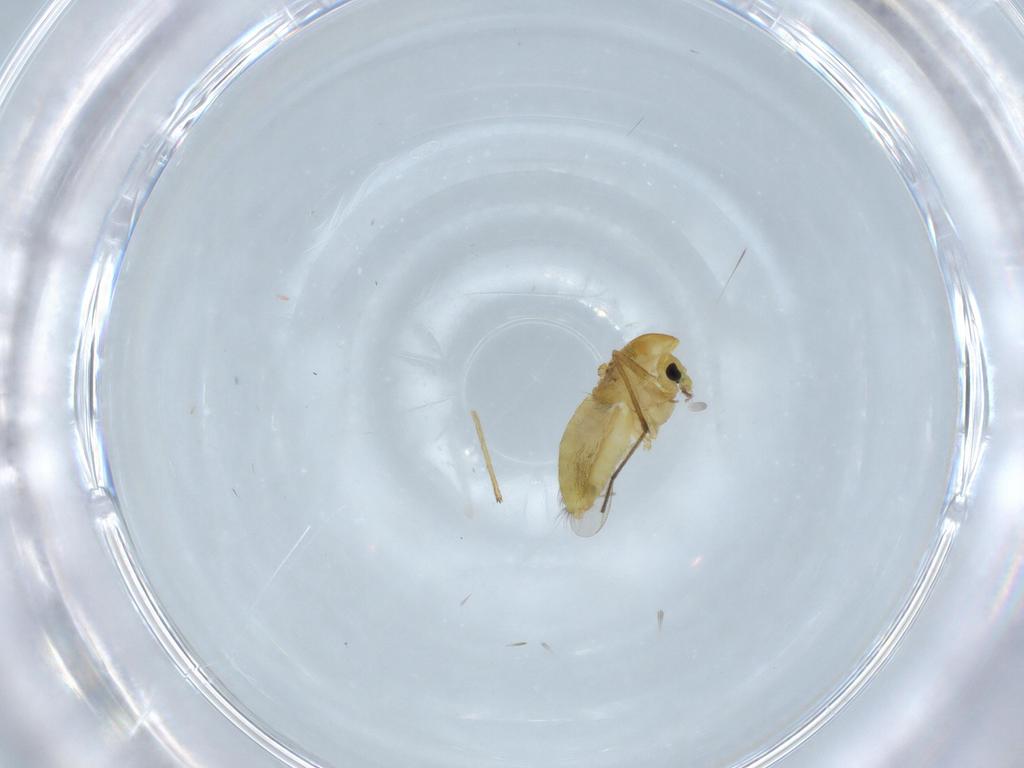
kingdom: Animalia
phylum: Arthropoda
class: Insecta
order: Diptera
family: Chironomidae
